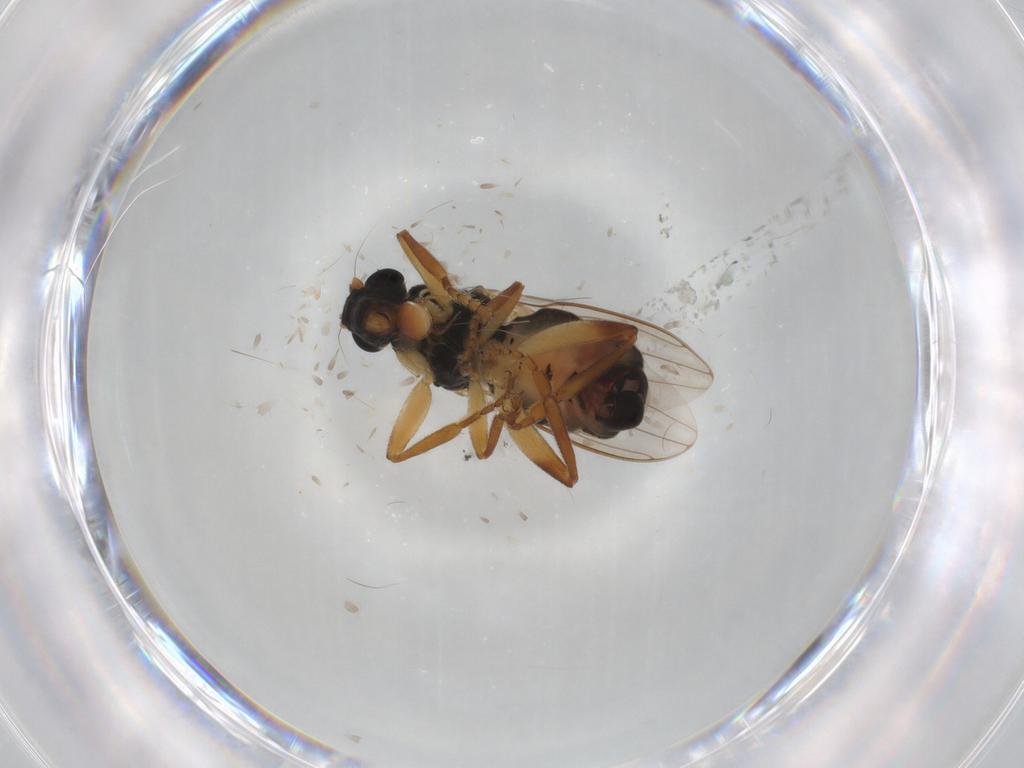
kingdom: Animalia
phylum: Arthropoda
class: Insecta
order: Diptera
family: Sphaeroceridae
